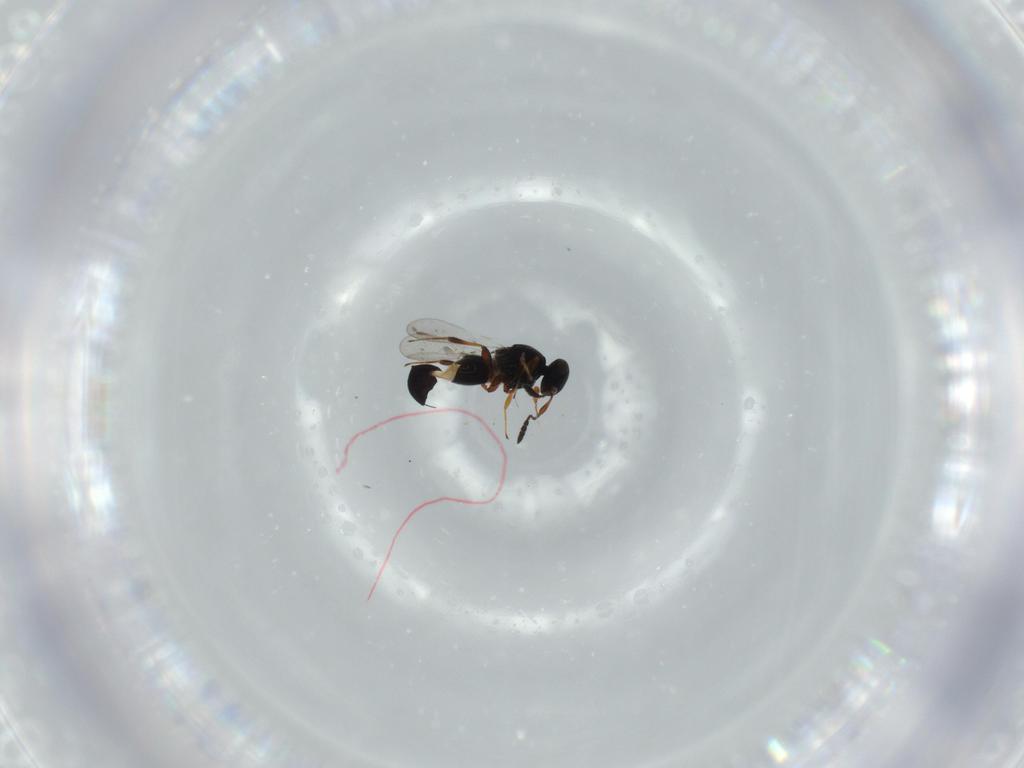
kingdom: Animalia
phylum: Arthropoda
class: Insecta
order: Hymenoptera
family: Platygastridae
